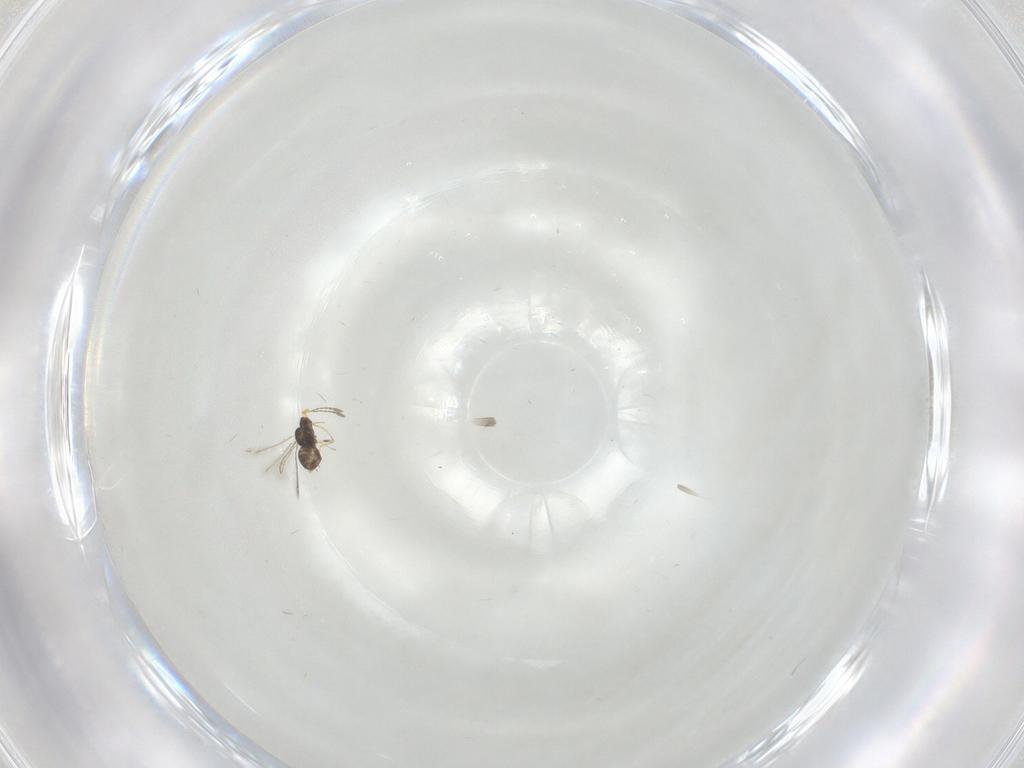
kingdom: Animalia
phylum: Arthropoda
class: Insecta
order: Hymenoptera
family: Mymaridae
